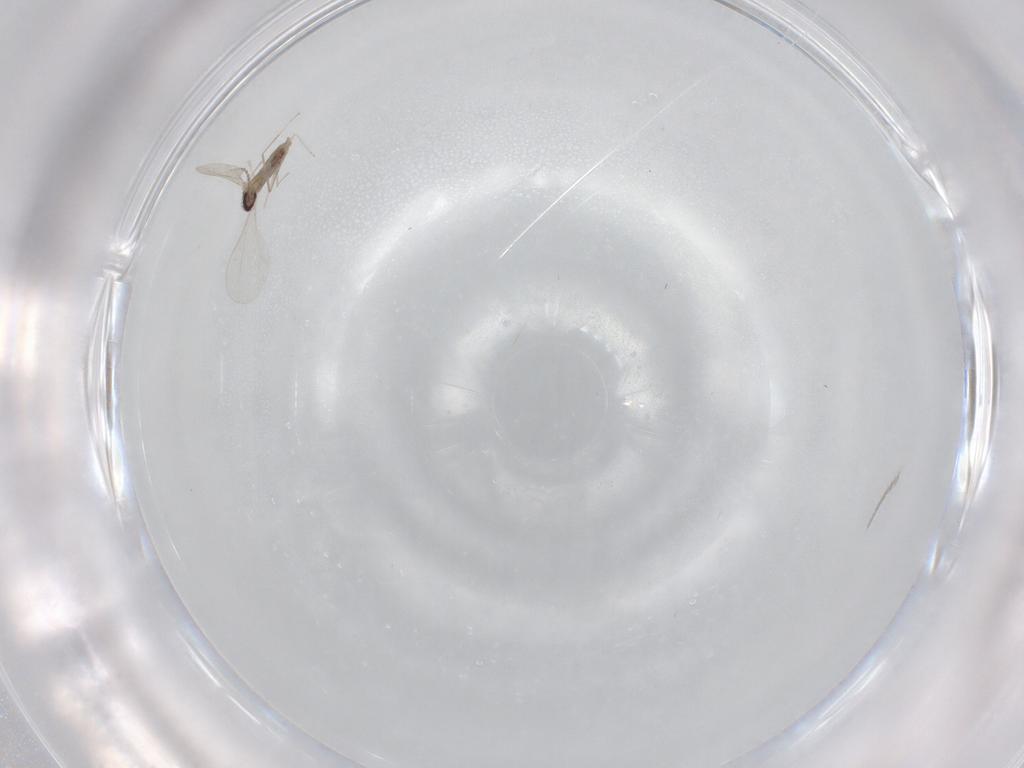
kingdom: Animalia
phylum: Arthropoda
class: Insecta
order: Diptera
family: Cecidomyiidae
